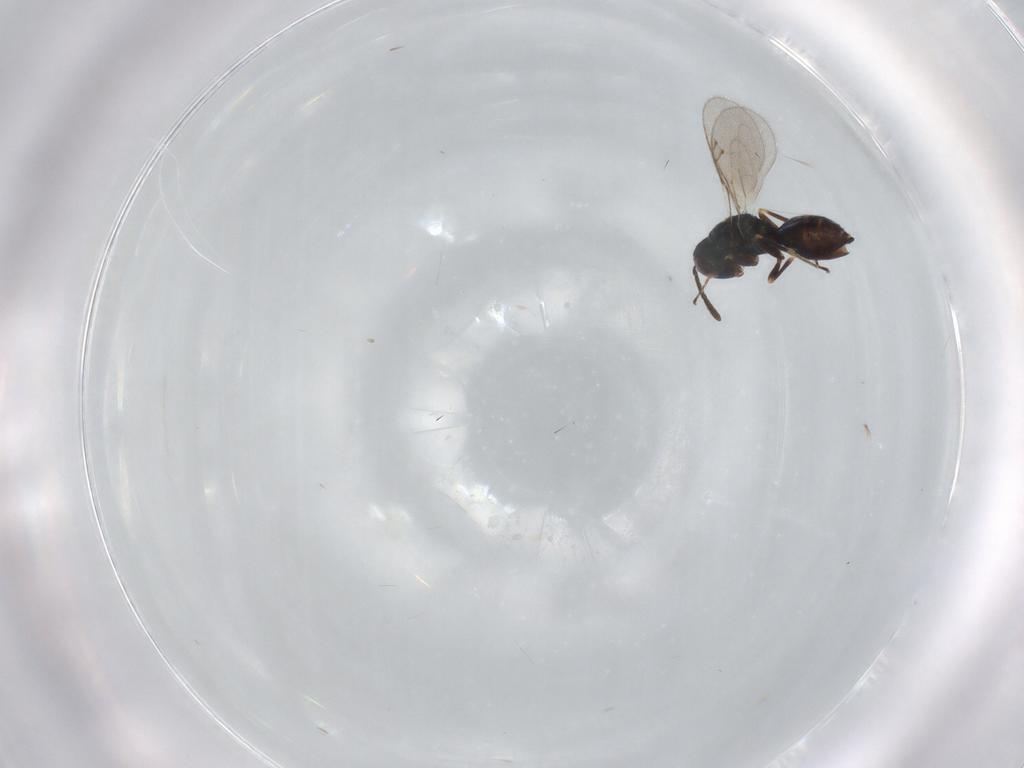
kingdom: Animalia
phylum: Arthropoda
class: Insecta
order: Hymenoptera
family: Pteromalidae
